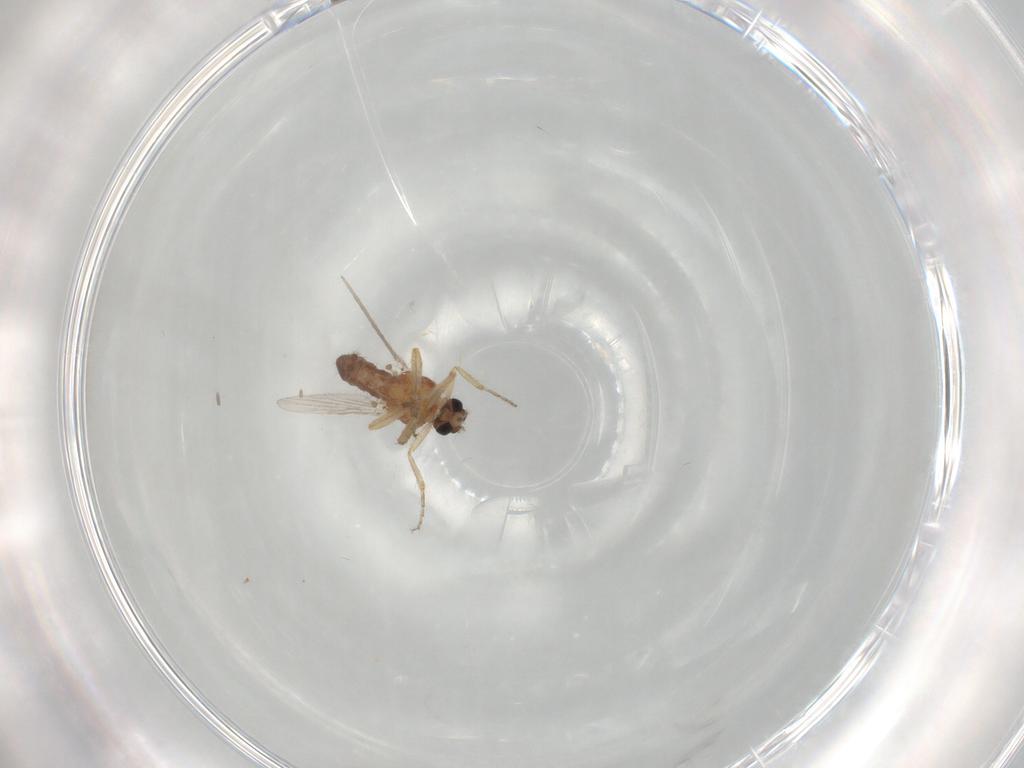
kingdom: Animalia
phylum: Arthropoda
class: Insecta
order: Diptera
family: Ceratopogonidae
